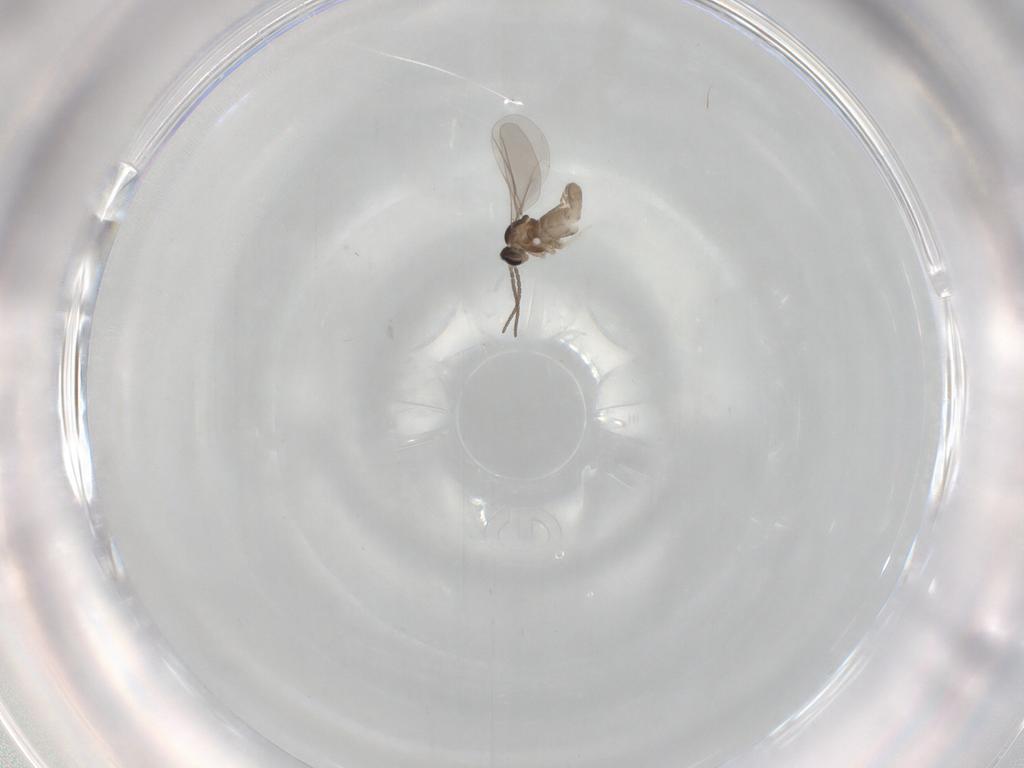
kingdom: Animalia
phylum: Arthropoda
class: Insecta
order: Diptera
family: Cecidomyiidae
